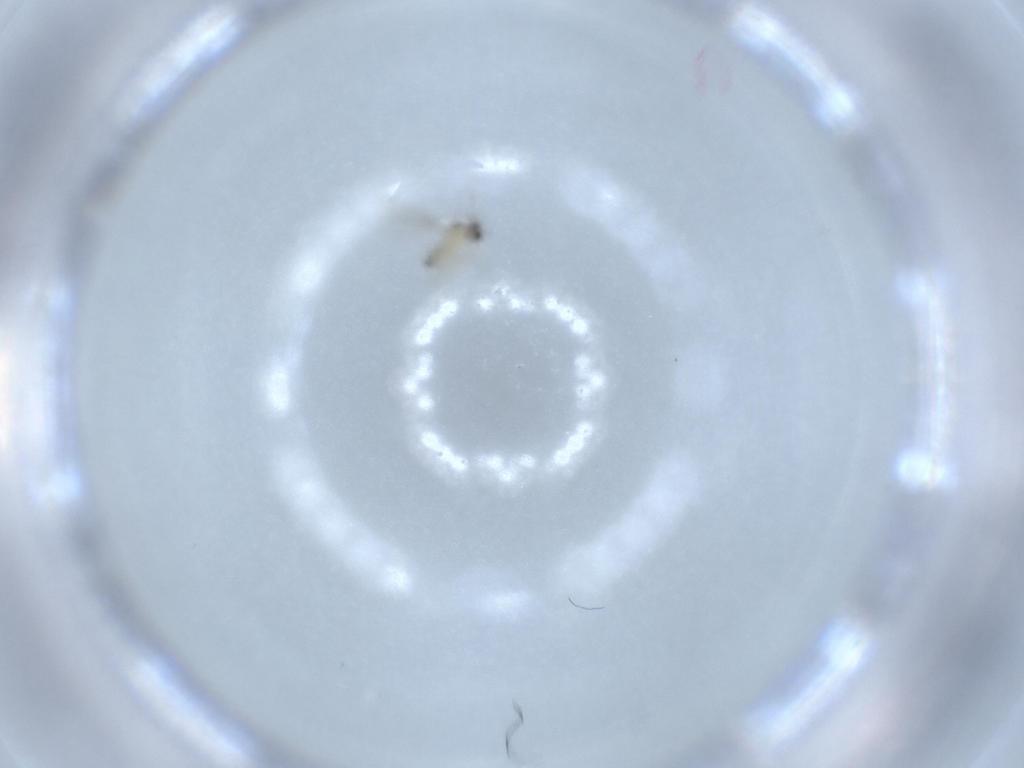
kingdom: Animalia
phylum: Arthropoda
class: Insecta
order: Diptera
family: Cecidomyiidae
